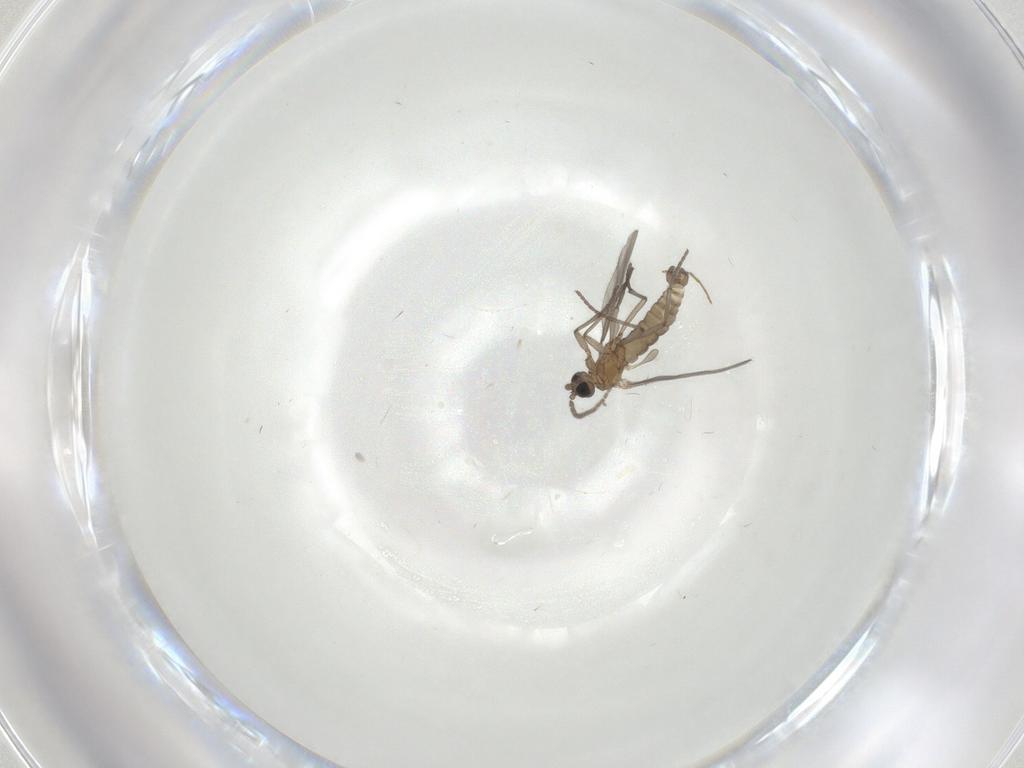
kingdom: Animalia
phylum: Arthropoda
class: Insecta
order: Diptera
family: Sciaridae
